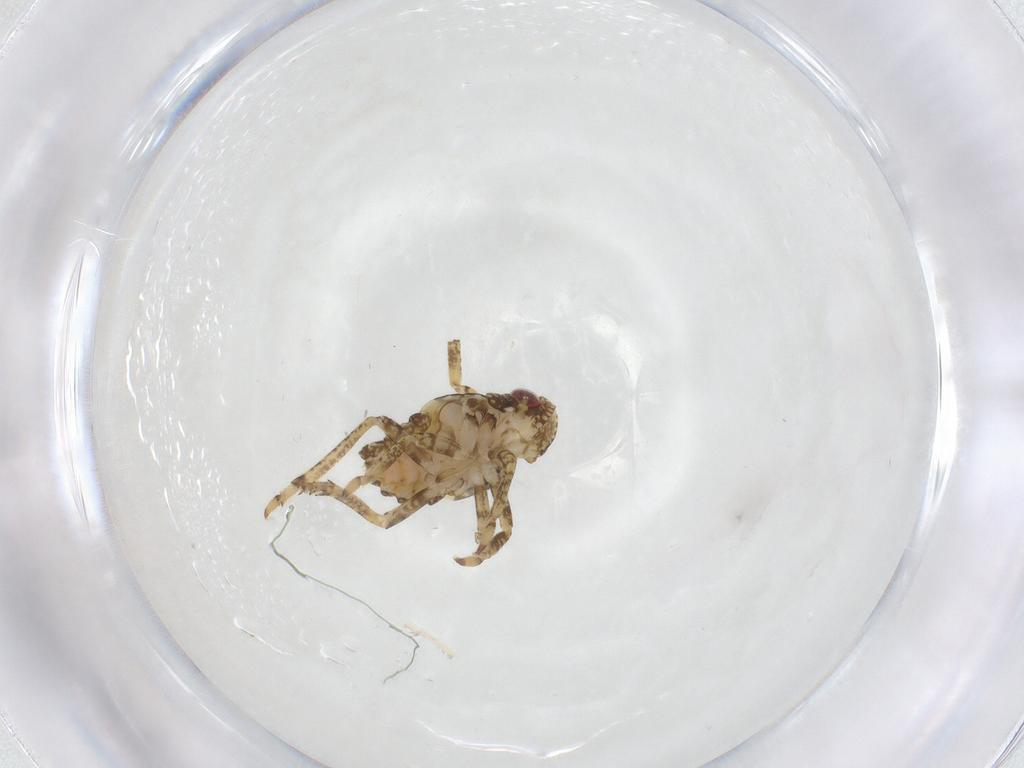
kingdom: Animalia
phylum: Arthropoda
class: Insecta
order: Hemiptera
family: Issidae
